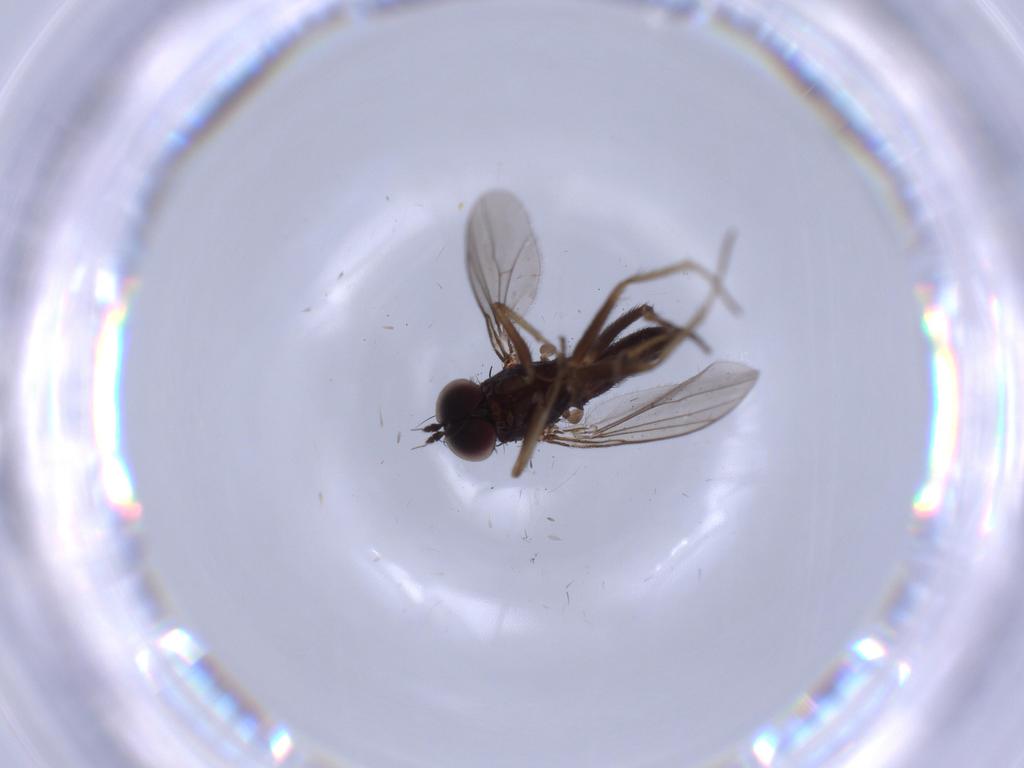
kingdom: Animalia
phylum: Arthropoda
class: Insecta
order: Diptera
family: Dolichopodidae
